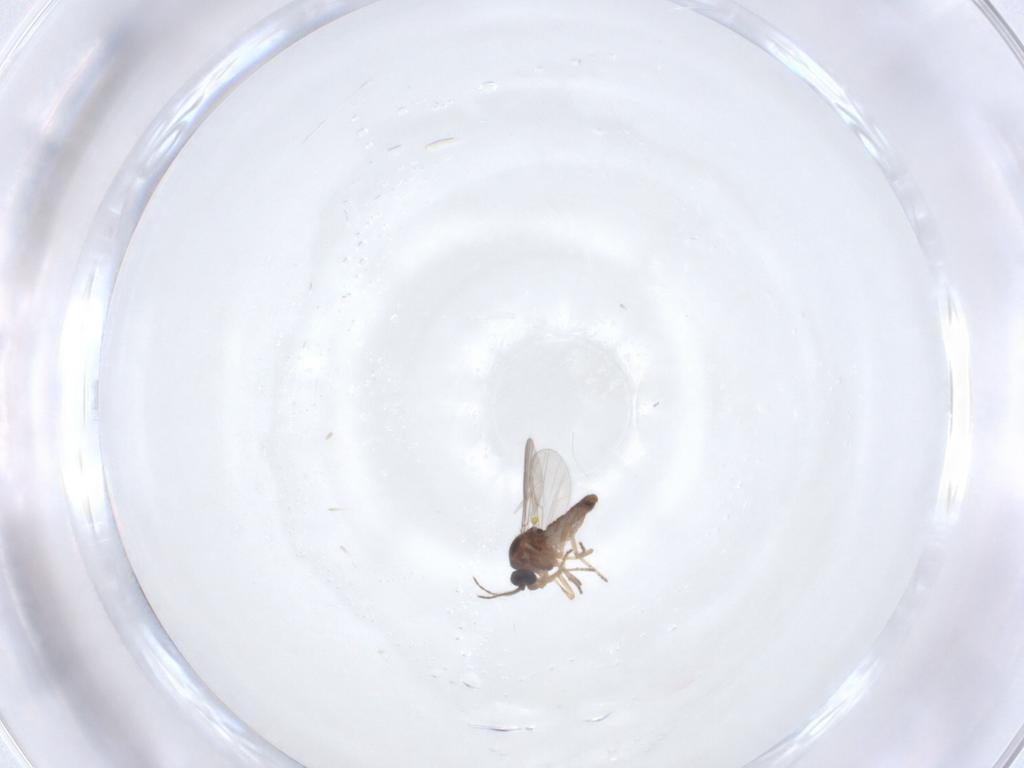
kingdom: Animalia
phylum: Arthropoda
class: Insecta
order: Diptera
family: Ceratopogonidae
